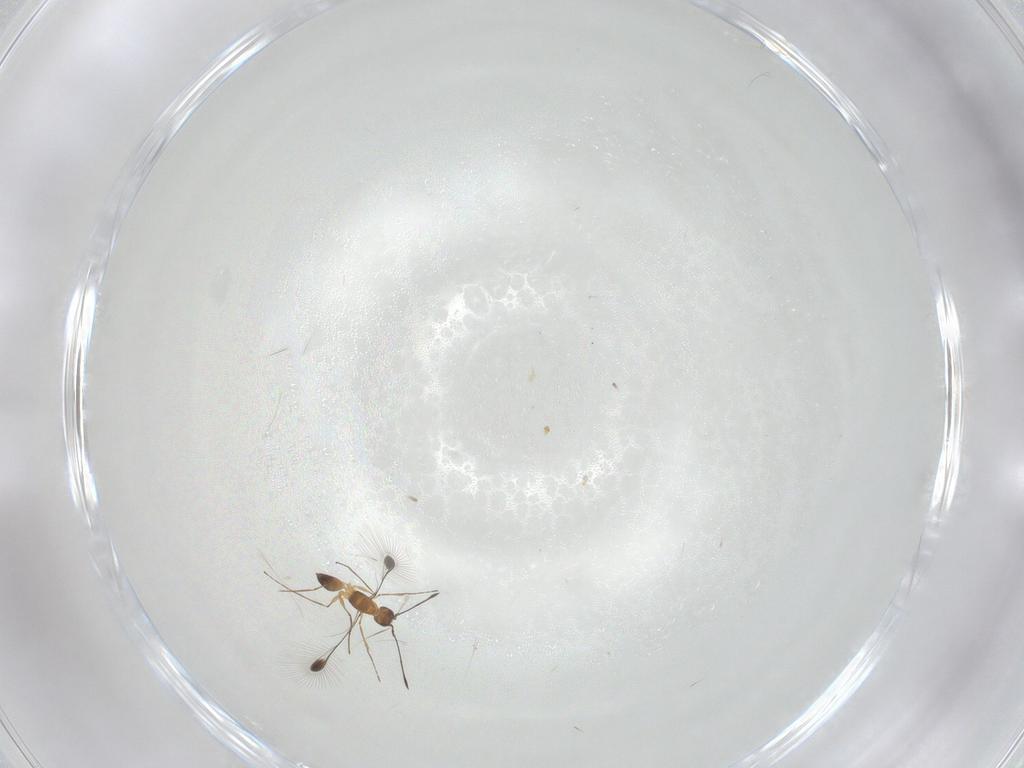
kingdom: Animalia
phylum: Arthropoda
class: Insecta
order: Hymenoptera
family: Mymaridae
